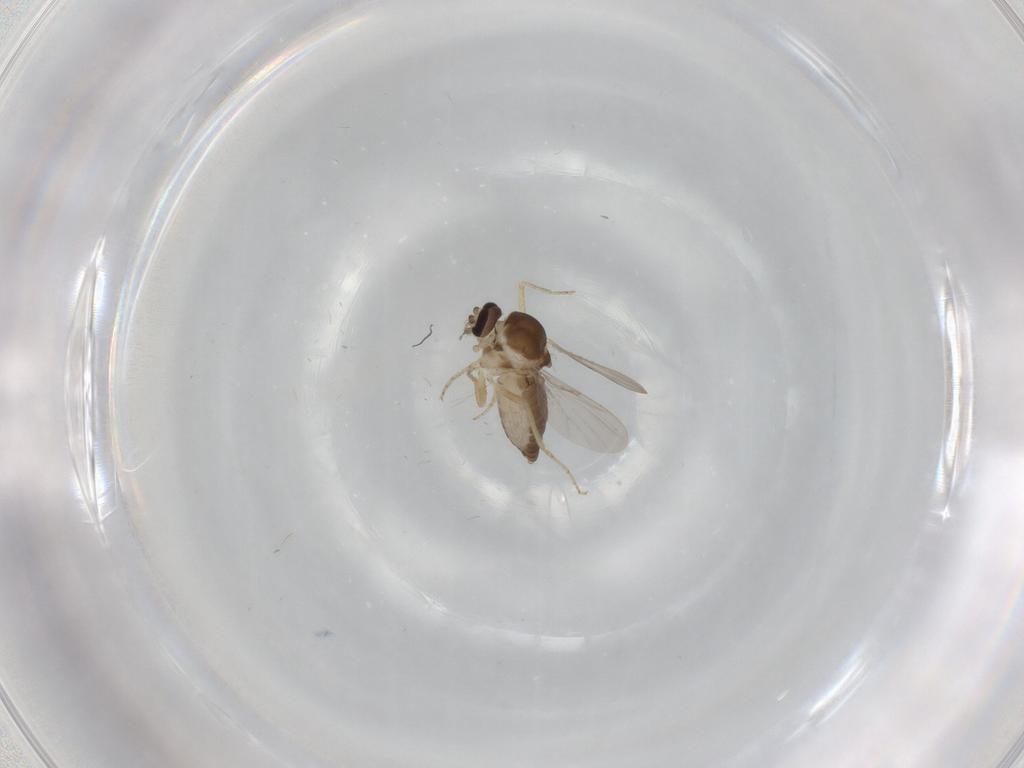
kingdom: Animalia
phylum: Arthropoda
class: Insecta
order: Diptera
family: Ceratopogonidae
